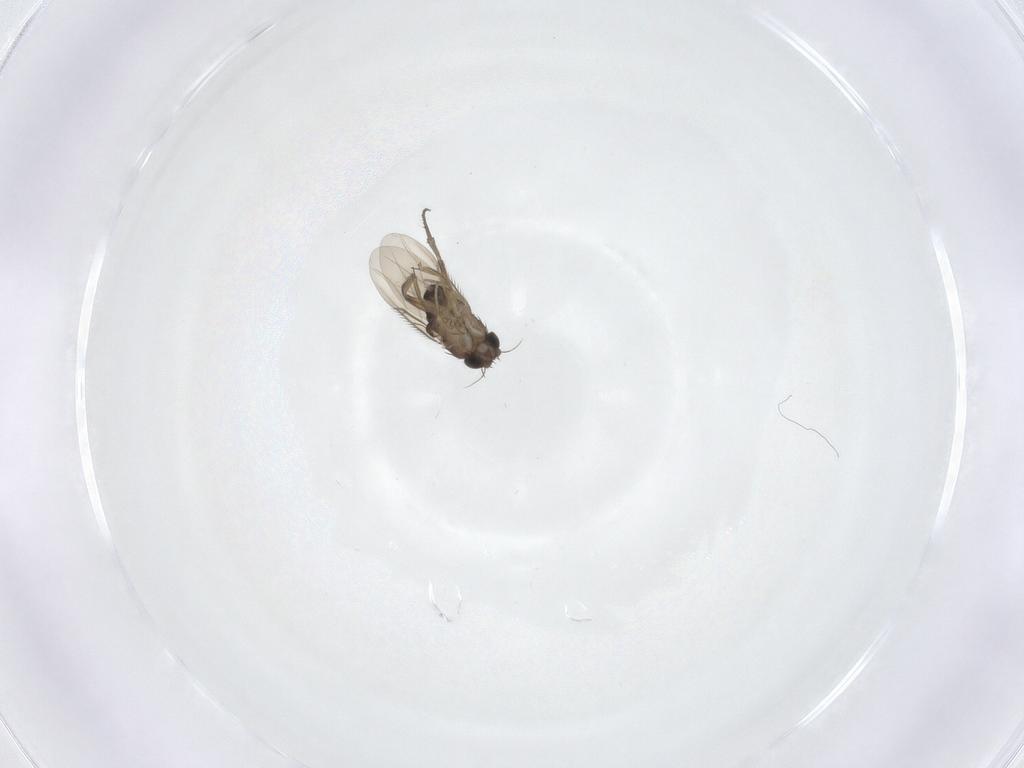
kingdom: Animalia
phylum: Arthropoda
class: Insecta
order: Diptera
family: Phoridae
